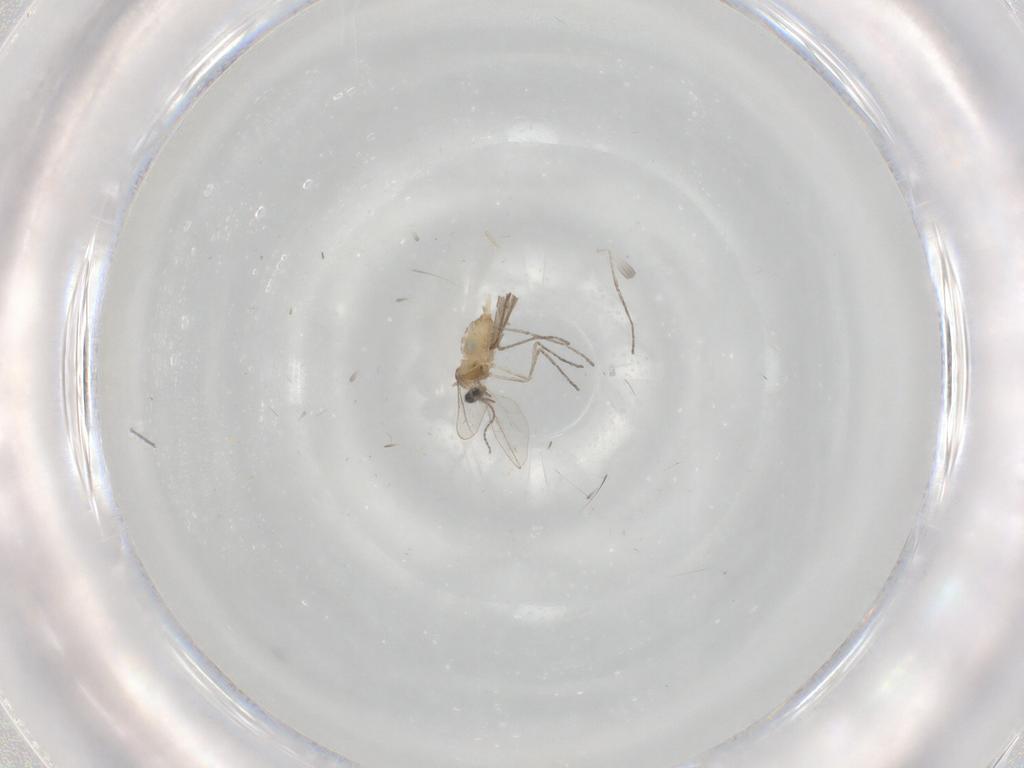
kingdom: Animalia
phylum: Arthropoda
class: Insecta
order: Diptera
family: Cecidomyiidae
